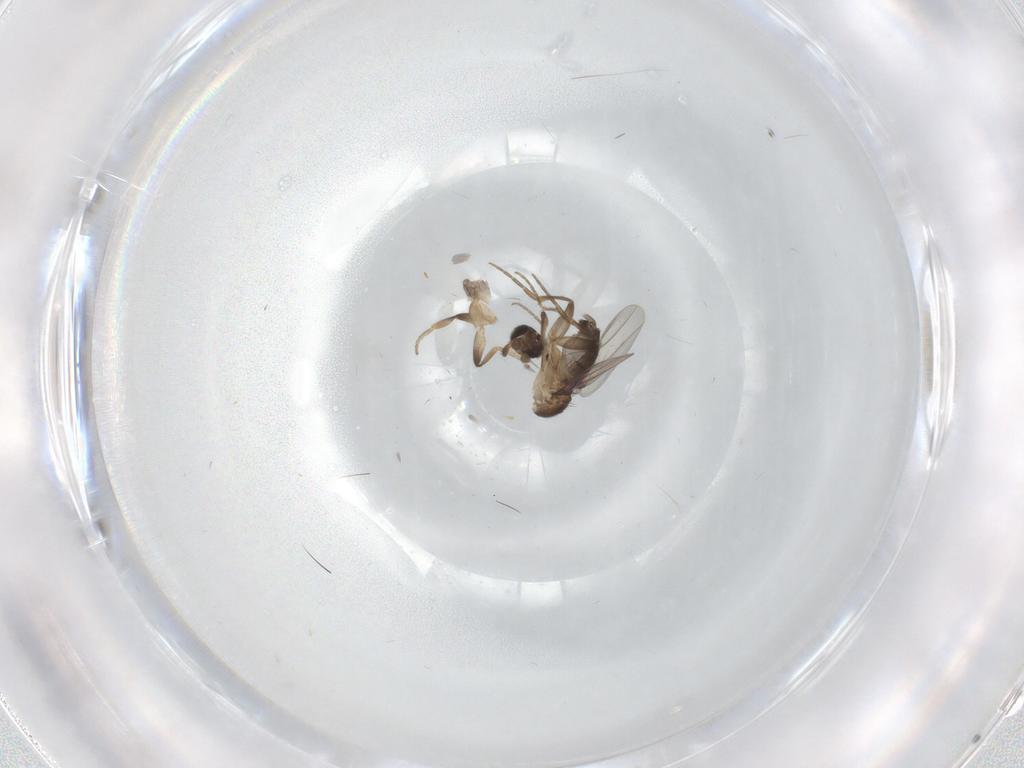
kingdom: Animalia
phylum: Arthropoda
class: Insecta
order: Diptera
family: Phoridae
